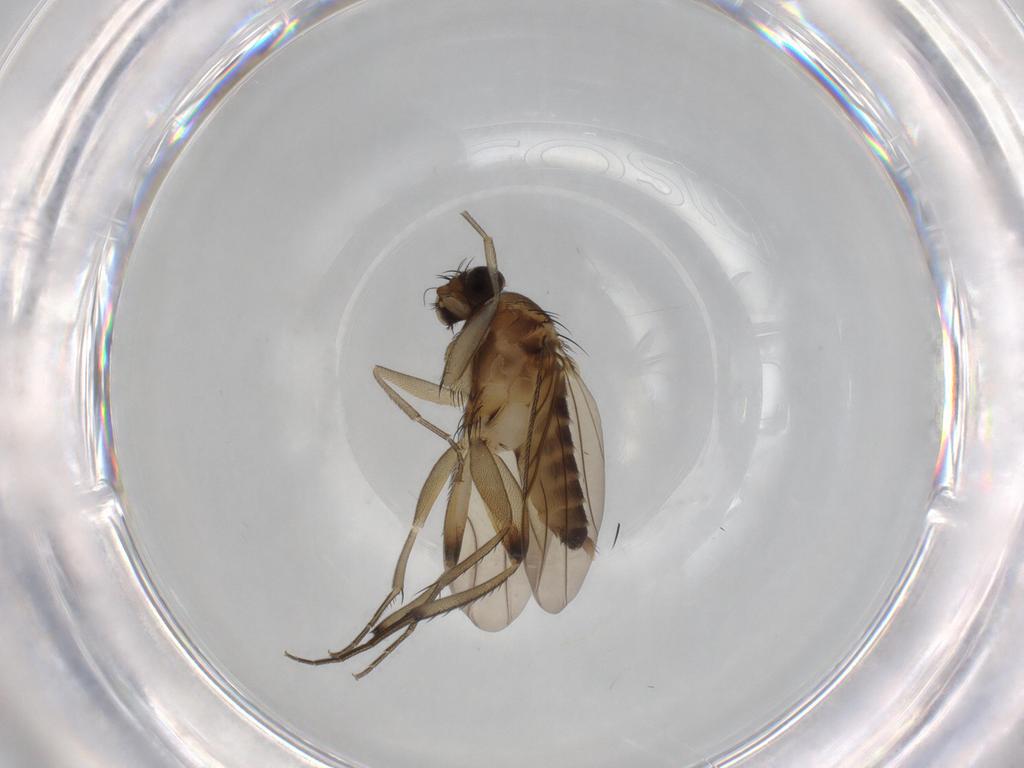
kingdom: Animalia
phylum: Arthropoda
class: Insecta
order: Diptera
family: Phoridae
